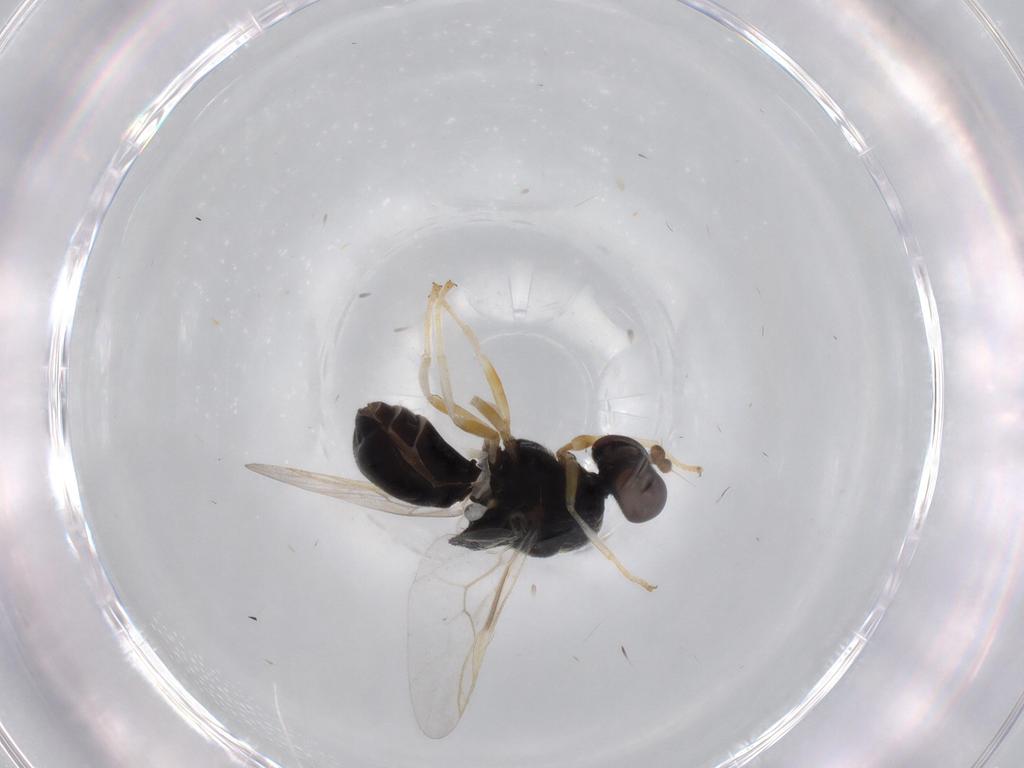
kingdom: Animalia
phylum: Arthropoda
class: Insecta
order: Diptera
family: Stratiomyidae
